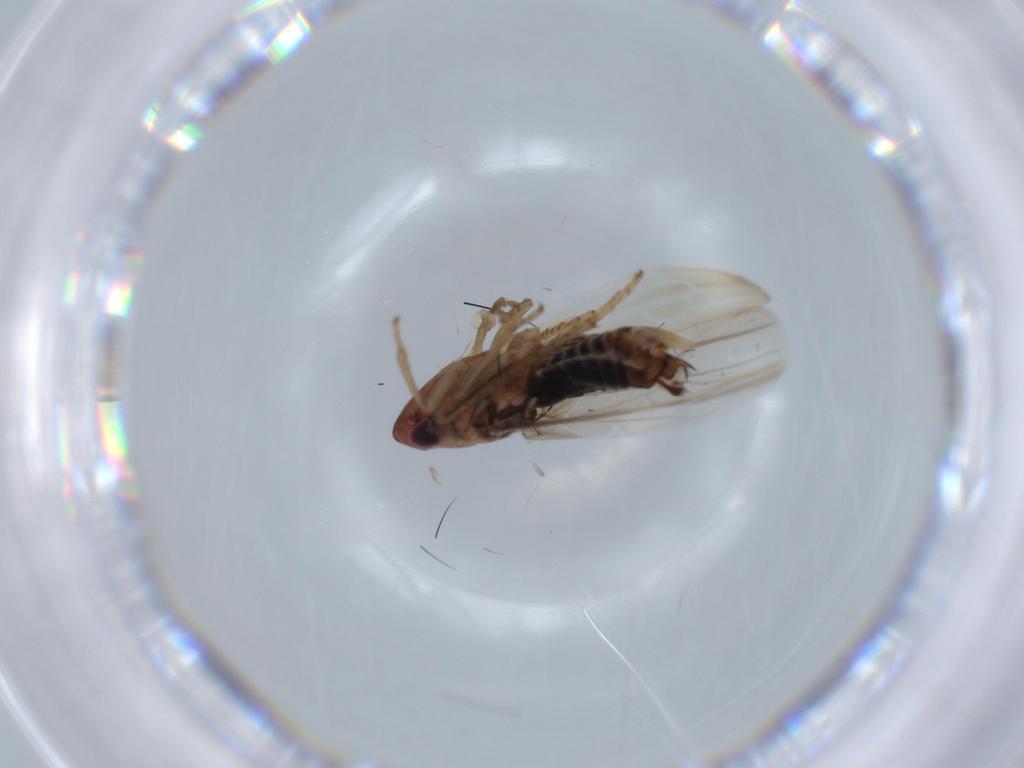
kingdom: Animalia
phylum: Arthropoda
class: Insecta
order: Hemiptera
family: Cicadellidae
